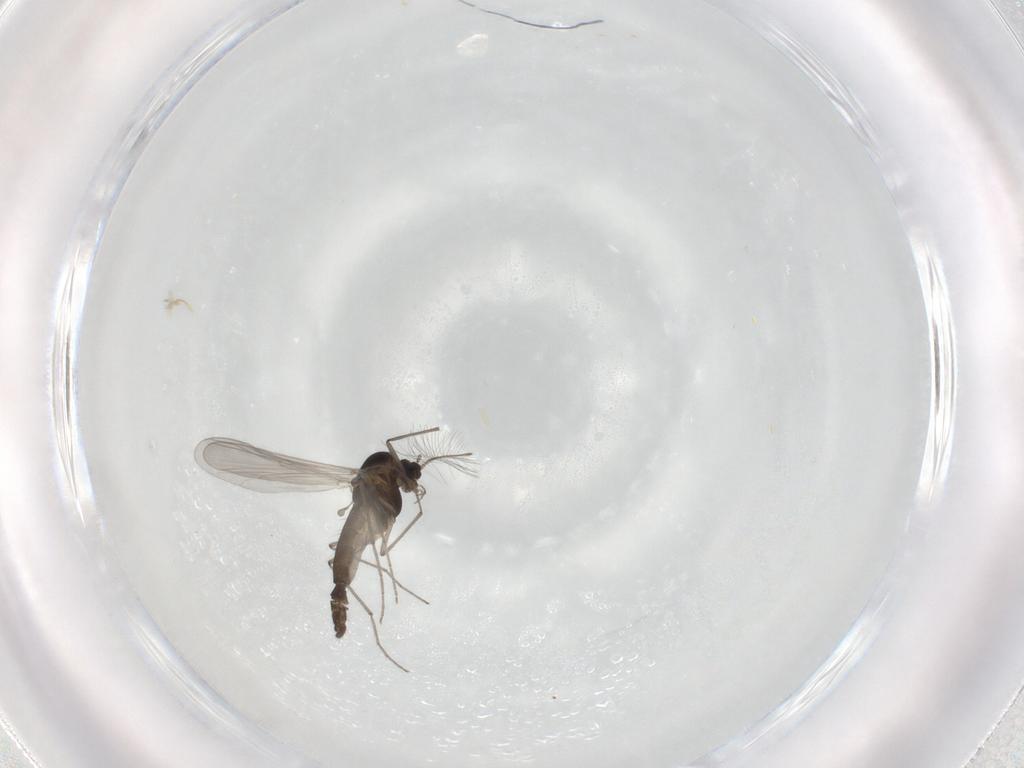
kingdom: Animalia
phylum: Arthropoda
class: Insecta
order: Diptera
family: Chironomidae
